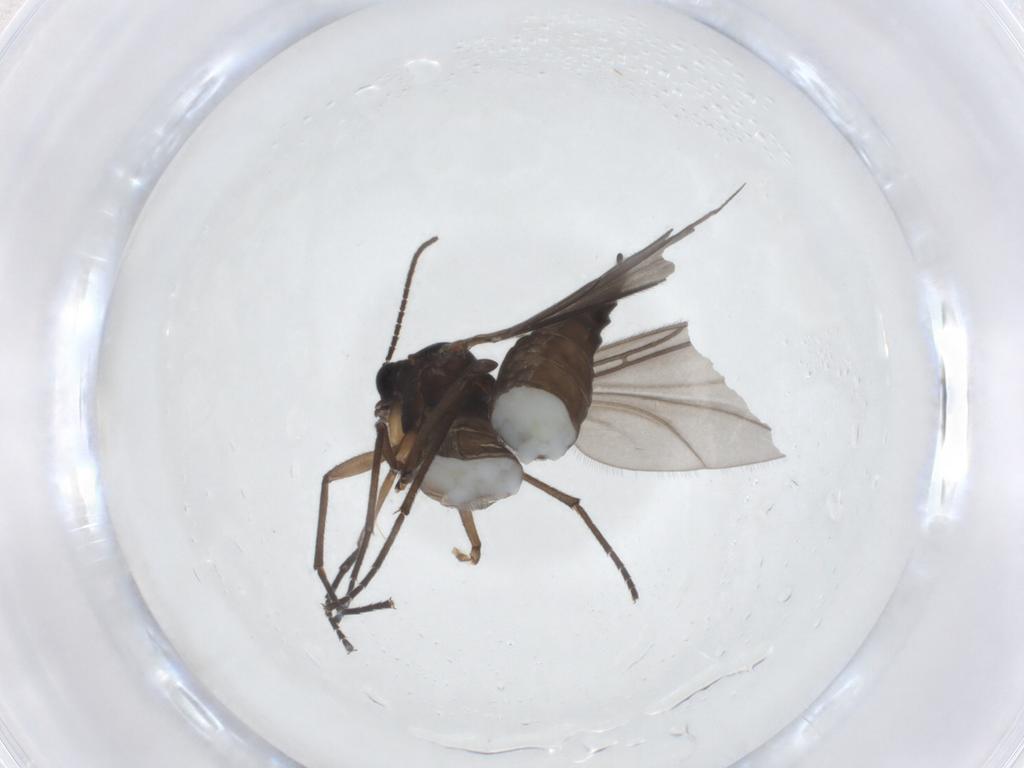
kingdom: Animalia
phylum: Arthropoda
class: Insecta
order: Diptera
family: Sciaridae
